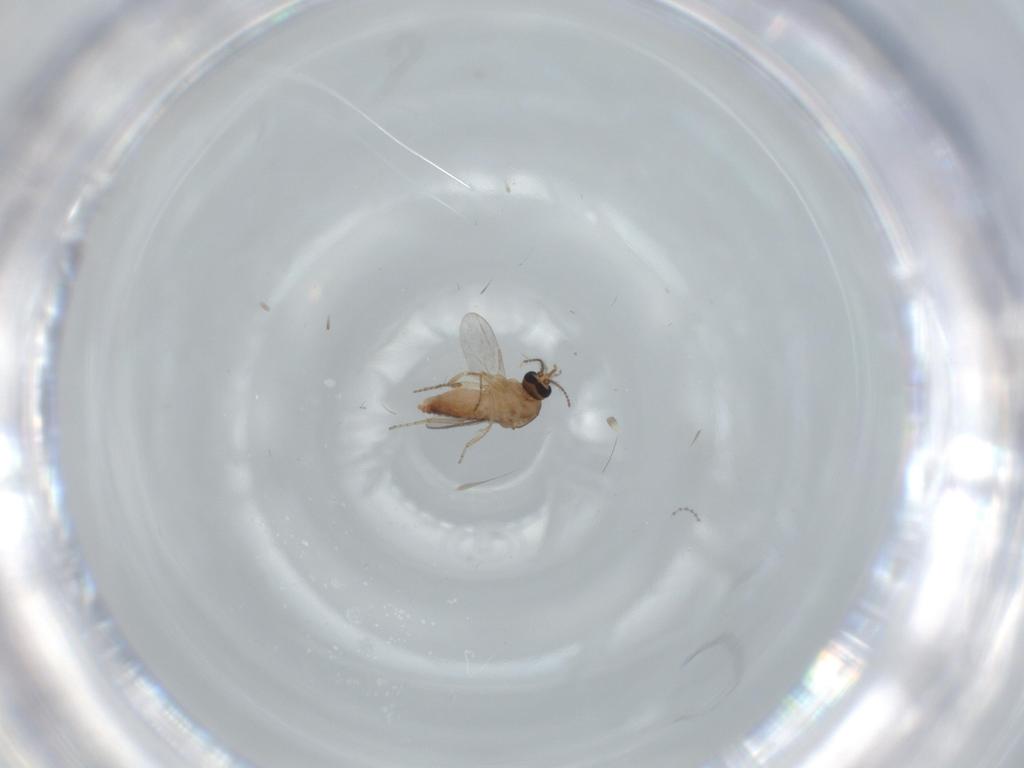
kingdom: Animalia
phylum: Arthropoda
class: Insecta
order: Diptera
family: Ceratopogonidae
